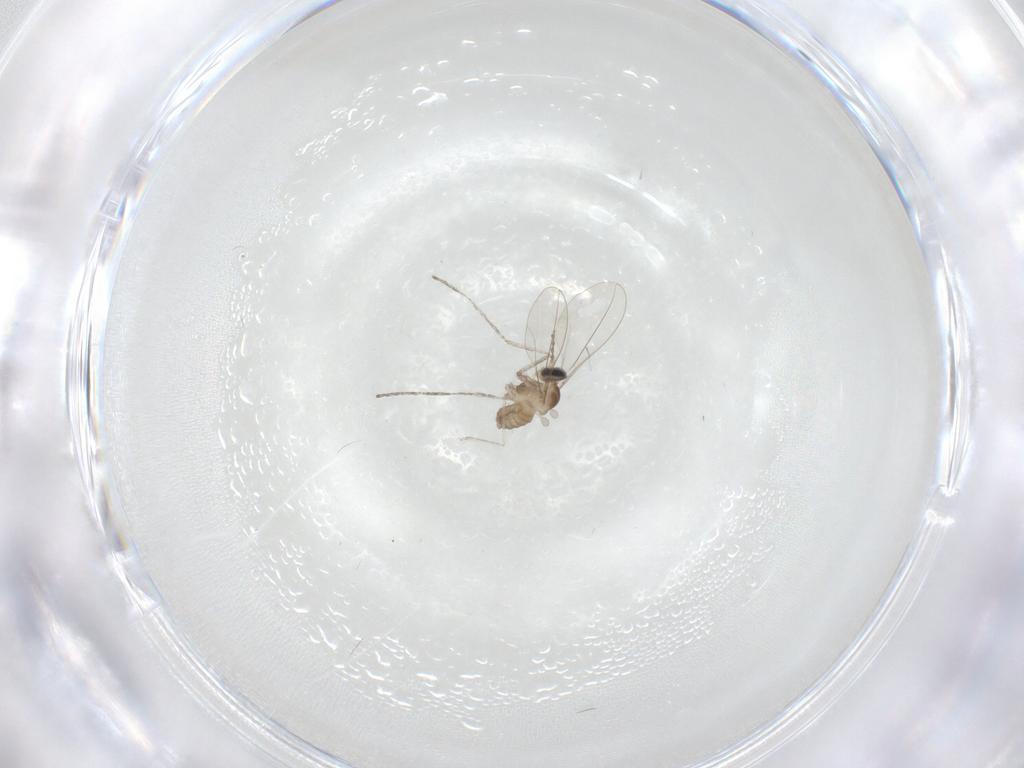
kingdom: Animalia
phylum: Arthropoda
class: Insecta
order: Diptera
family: Cecidomyiidae
